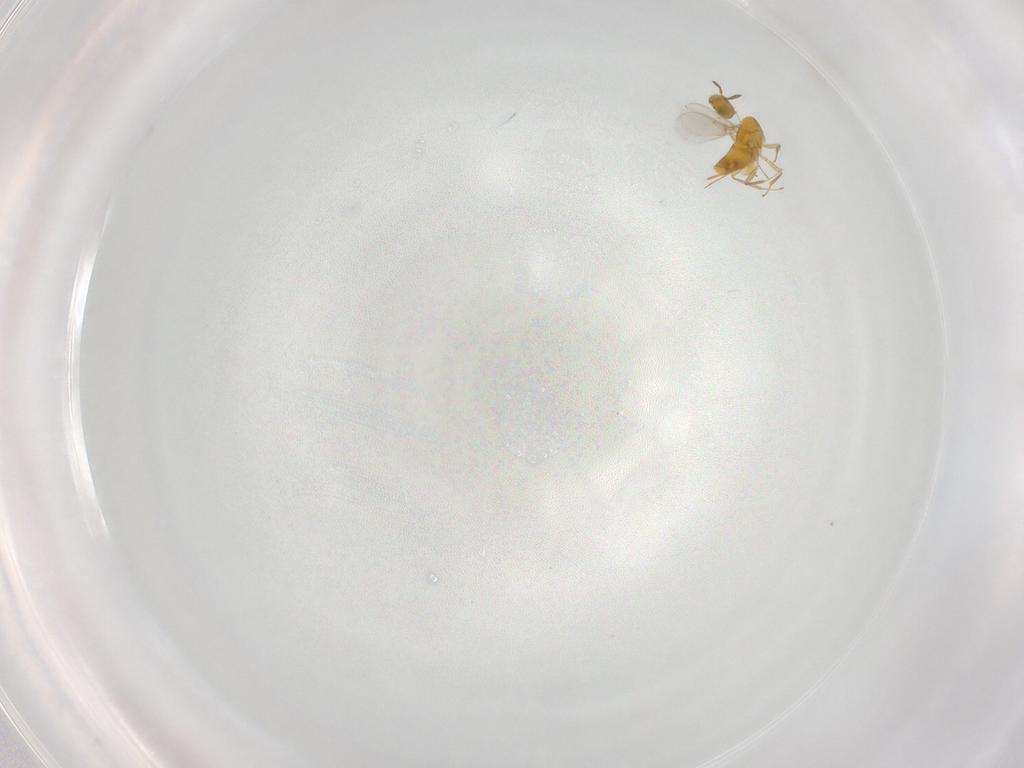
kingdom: Animalia
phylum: Arthropoda
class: Insecta
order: Hymenoptera
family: Aphelinidae
